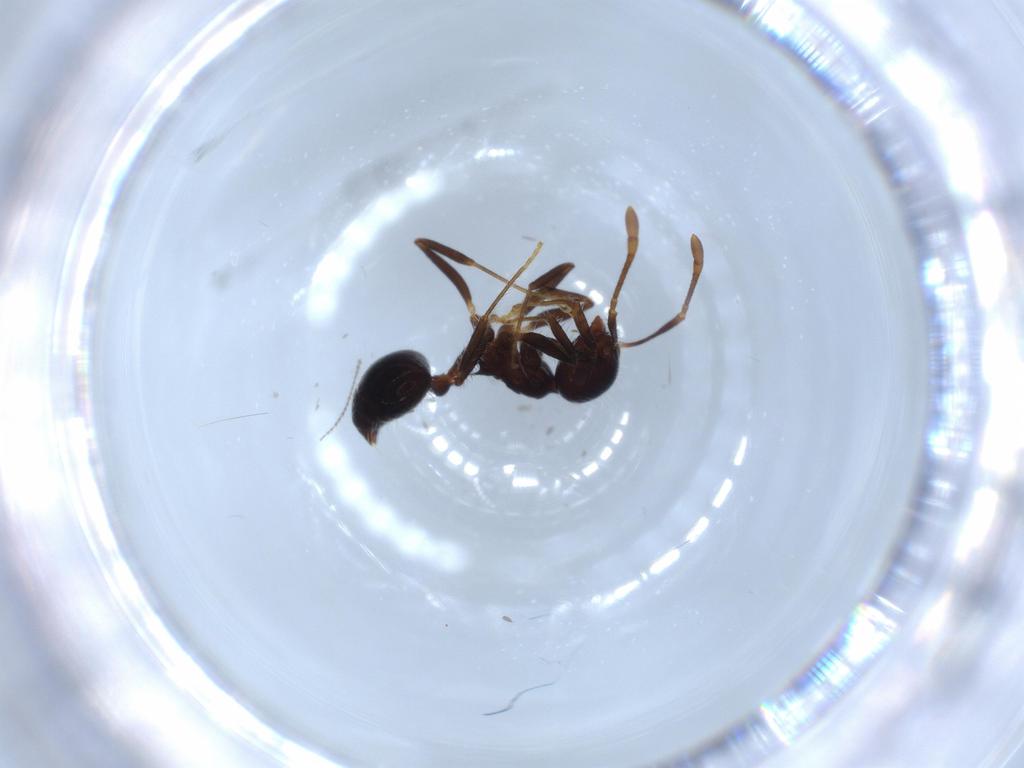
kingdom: Animalia
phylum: Arthropoda
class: Insecta
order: Hymenoptera
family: Formicidae
